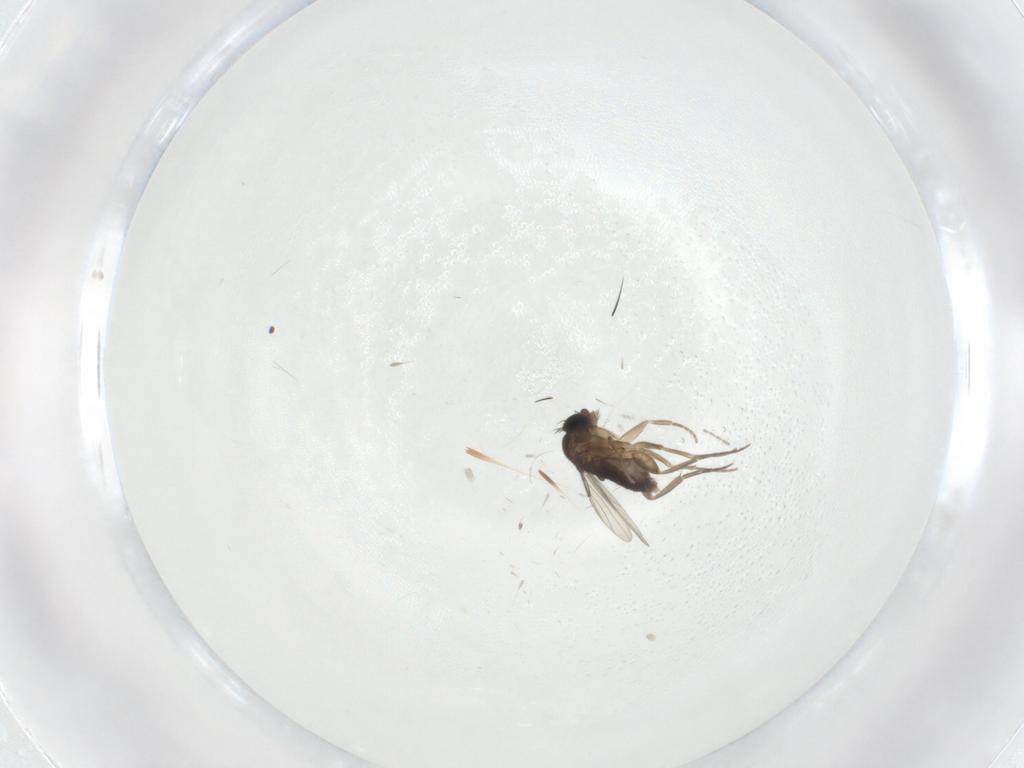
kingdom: Animalia
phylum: Arthropoda
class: Insecta
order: Diptera
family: Phoridae
